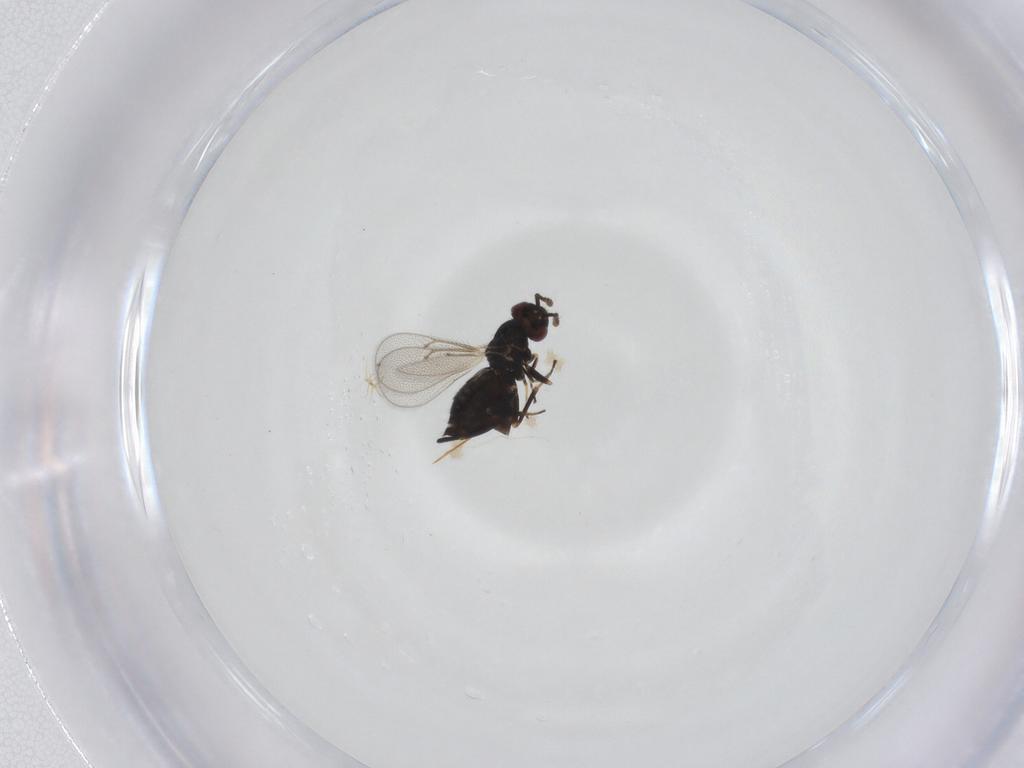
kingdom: Animalia
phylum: Arthropoda
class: Insecta
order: Hymenoptera
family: Eulophidae
